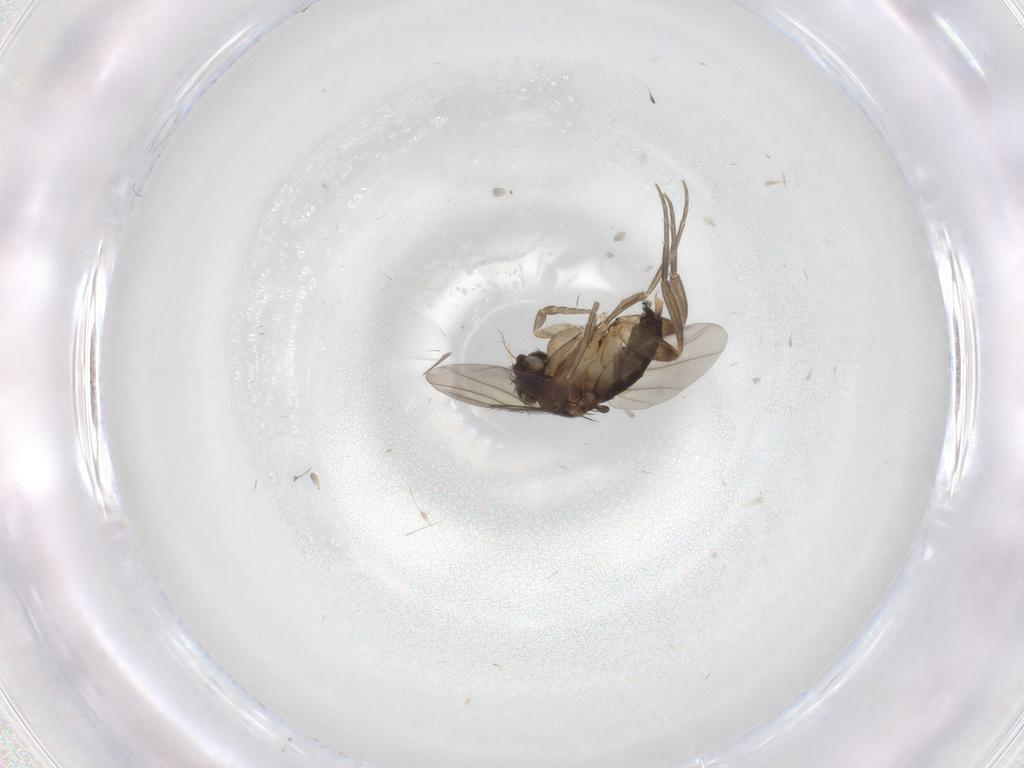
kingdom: Animalia
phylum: Arthropoda
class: Insecta
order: Diptera
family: Phoridae
